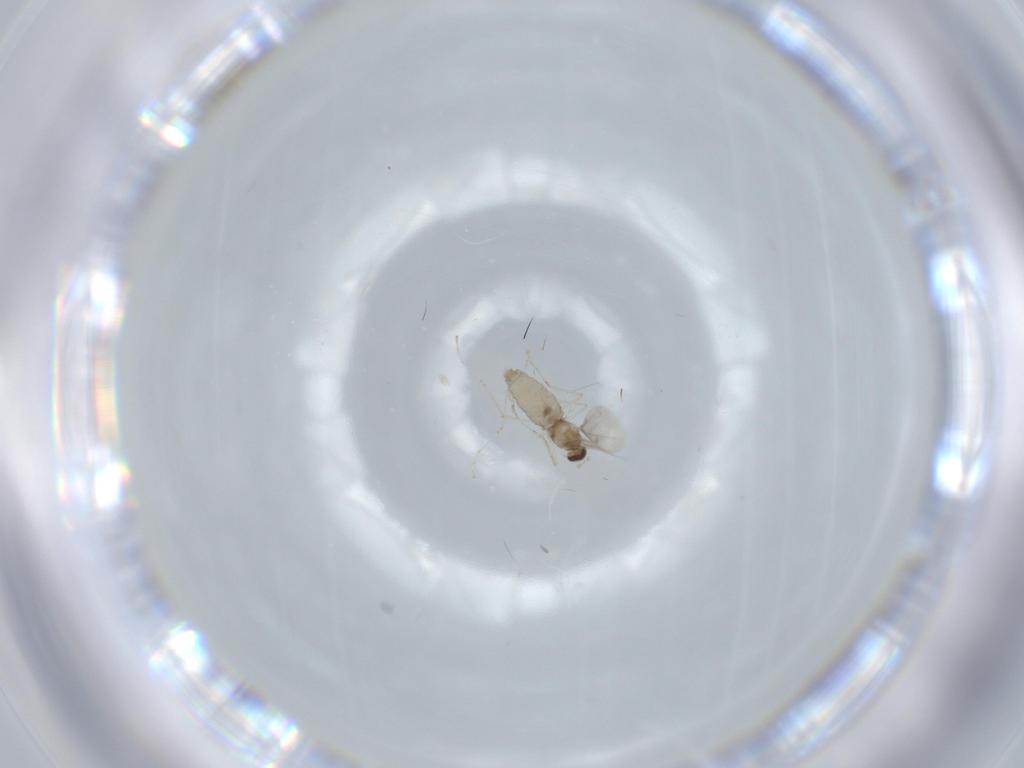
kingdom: Animalia
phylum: Arthropoda
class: Insecta
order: Diptera
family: Cecidomyiidae
